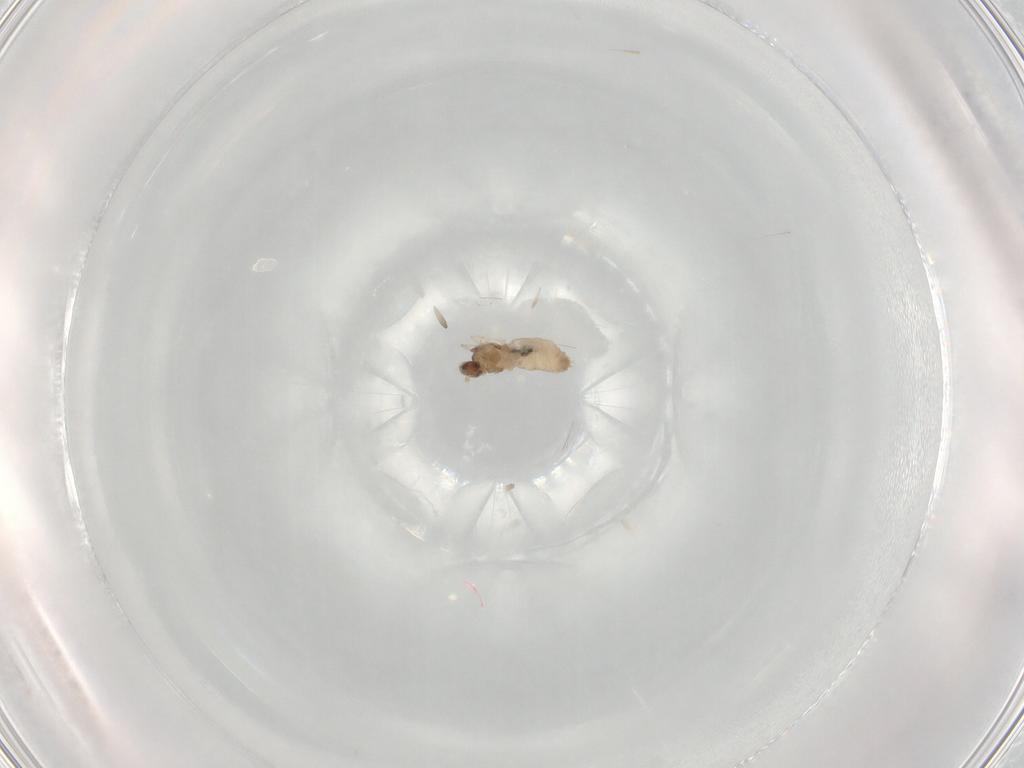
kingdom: Animalia
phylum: Arthropoda
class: Insecta
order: Diptera
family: Cecidomyiidae
